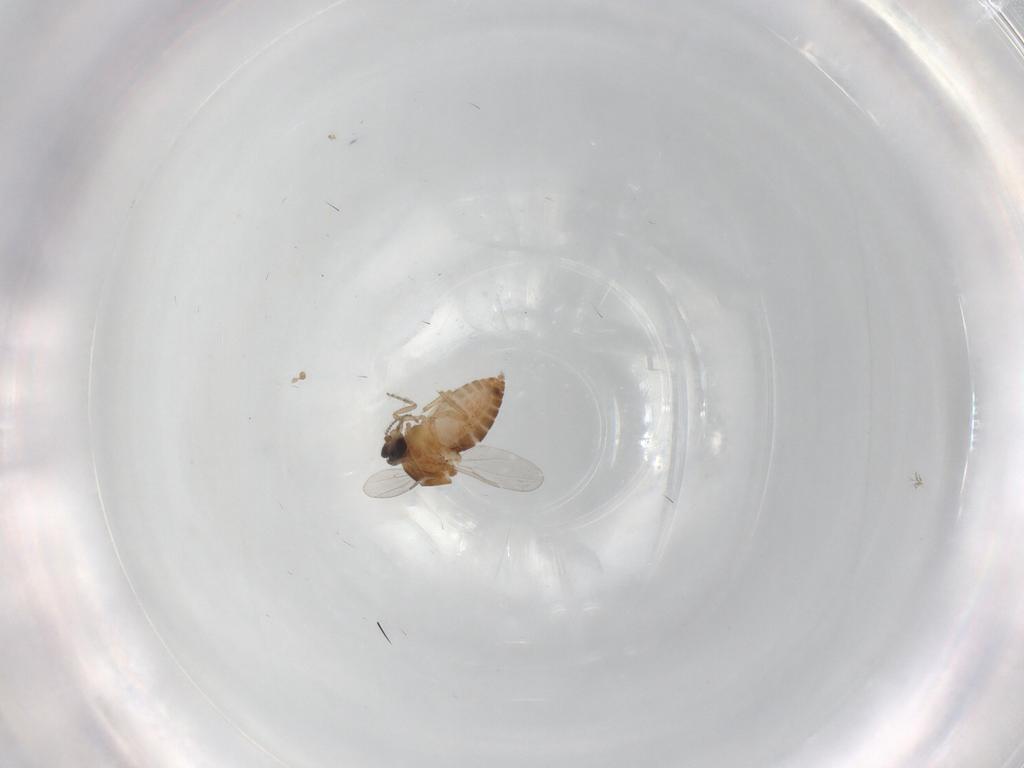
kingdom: Animalia
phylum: Arthropoda
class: Insecta
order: Diptera
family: Ceratopogonidae
